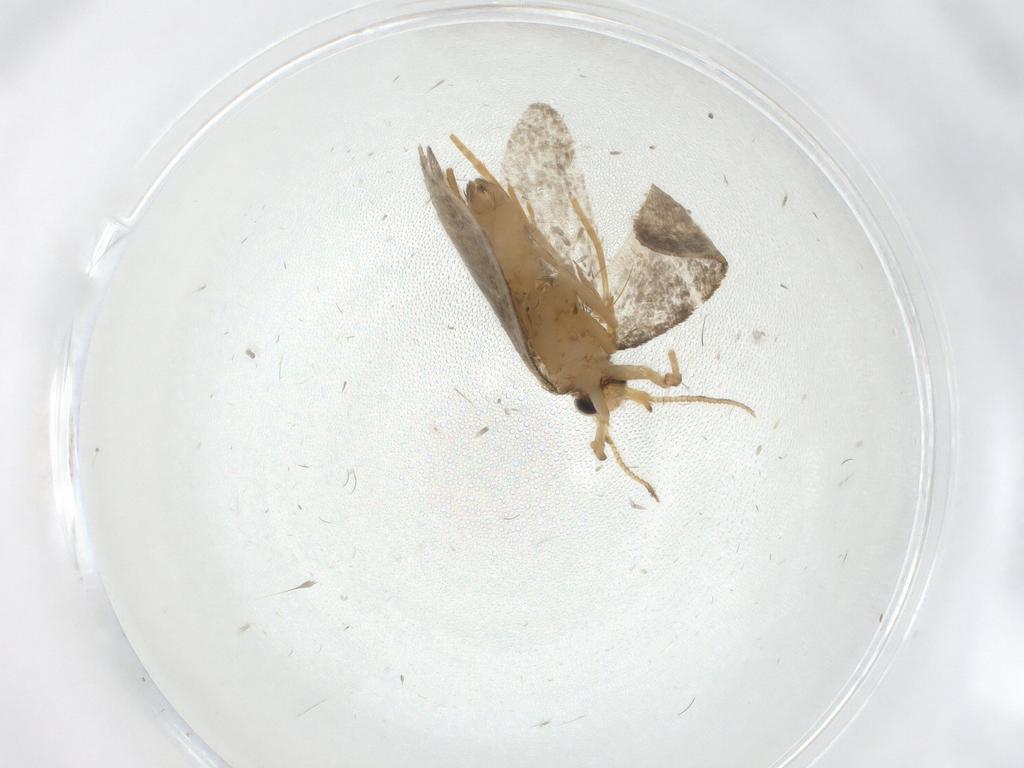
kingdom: Animalia
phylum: Arthropoda
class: Insecta
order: Lepidoptera
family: Psychidae
